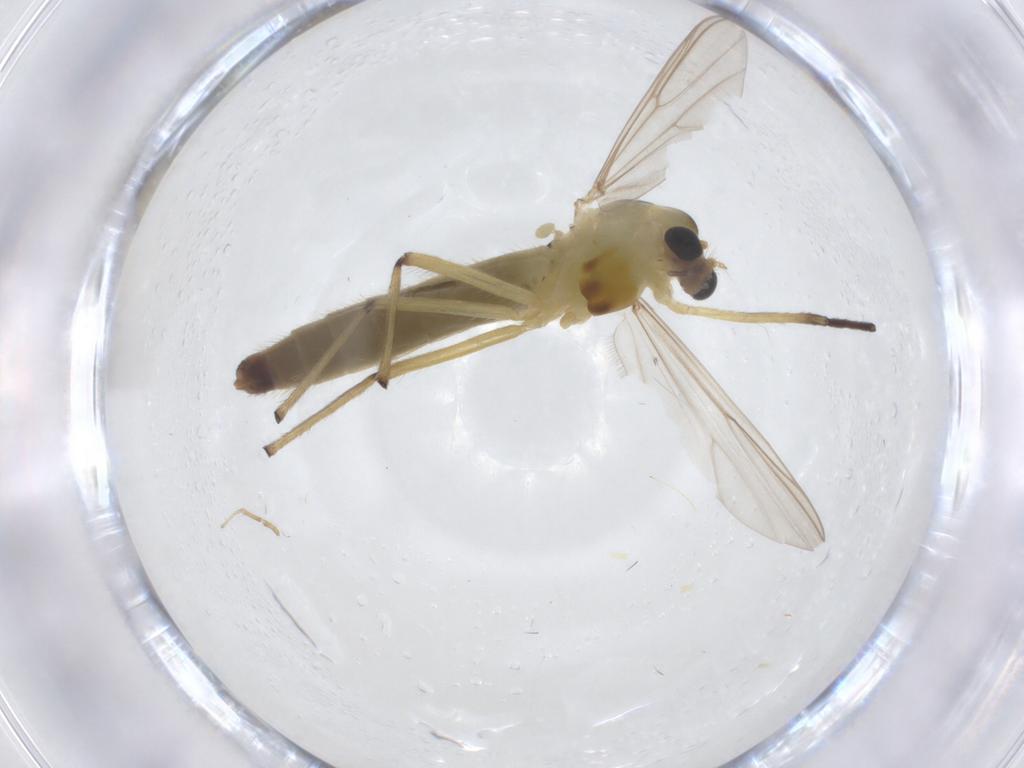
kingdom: Animalia
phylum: Arthropoda
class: Insecta
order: Diptera
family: Chironomidae
